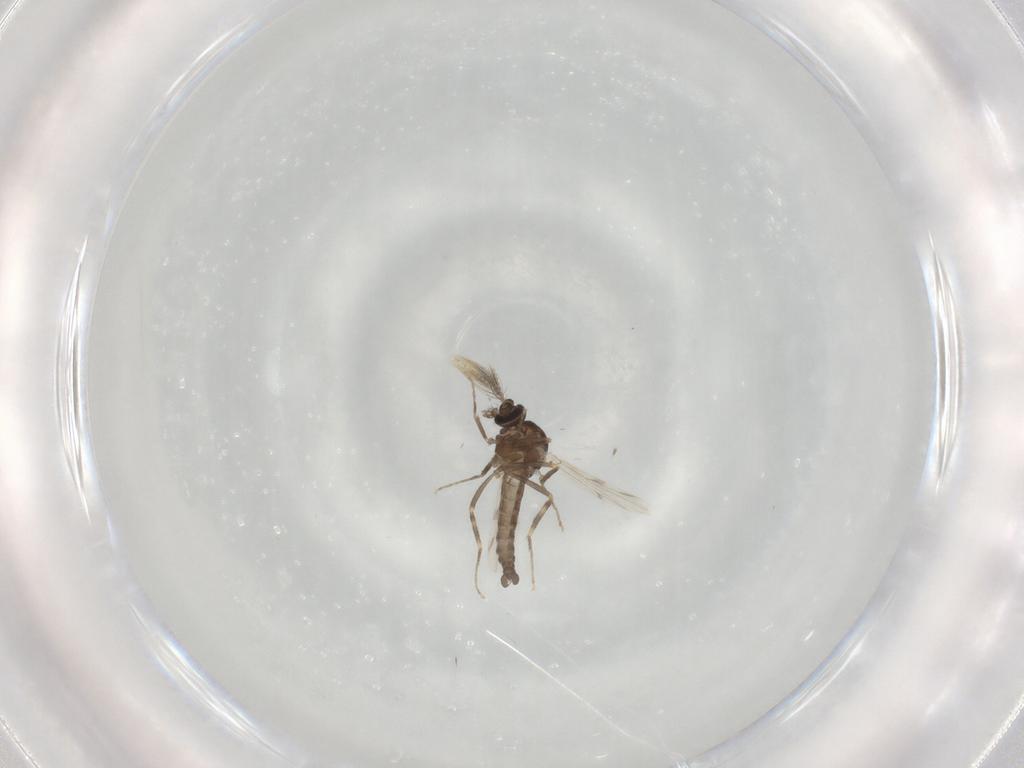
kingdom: Animalia
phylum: Arthropoda
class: Insecta
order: Diptera
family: Ceratopogonidae
